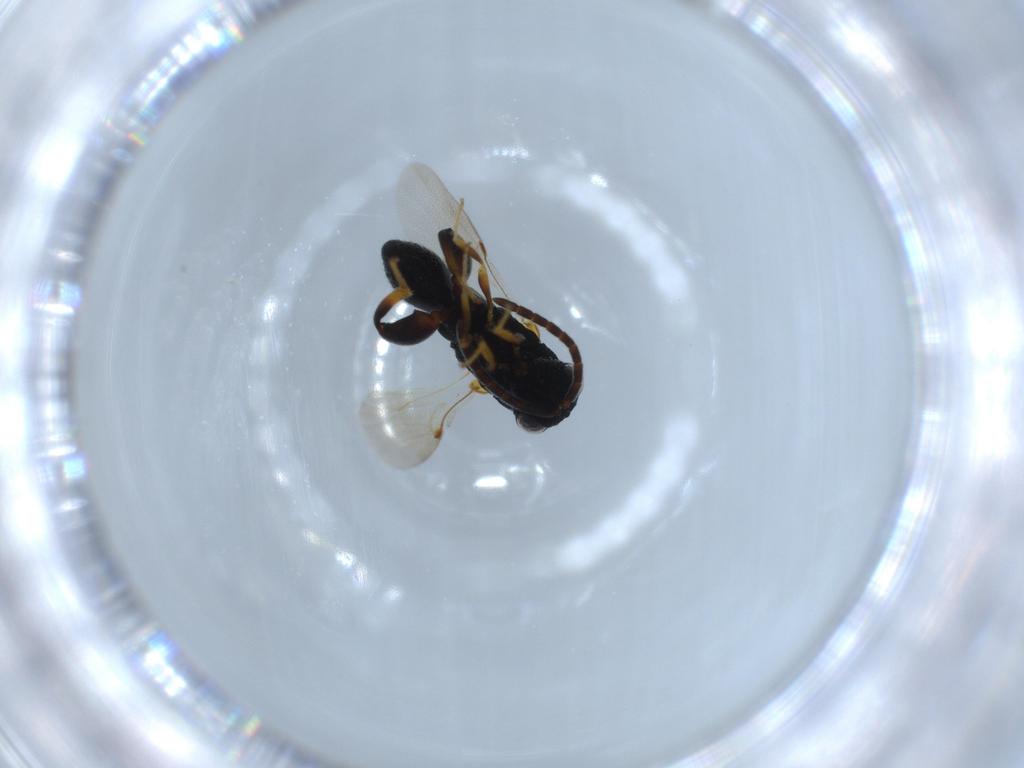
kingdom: Animalia
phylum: Arthropoda
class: Insecta
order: Hymenoptera
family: Chalcididae
